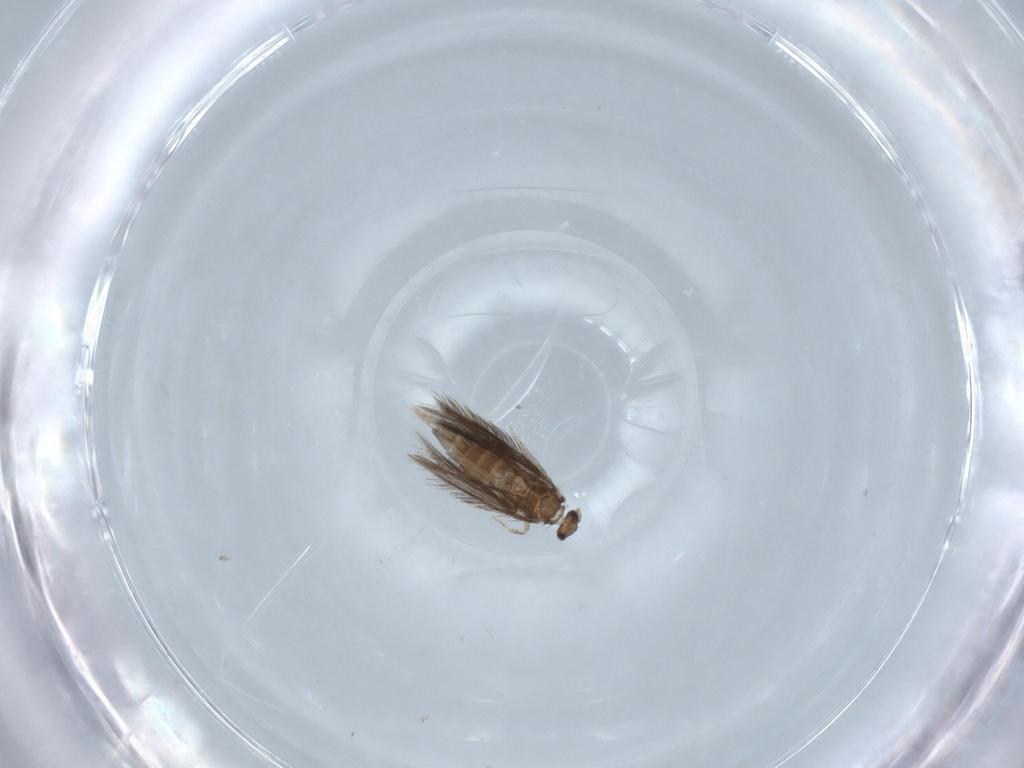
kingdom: Animalia
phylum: Arthropoda
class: Insecta
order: Trichoptera
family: Hydroptilidae
